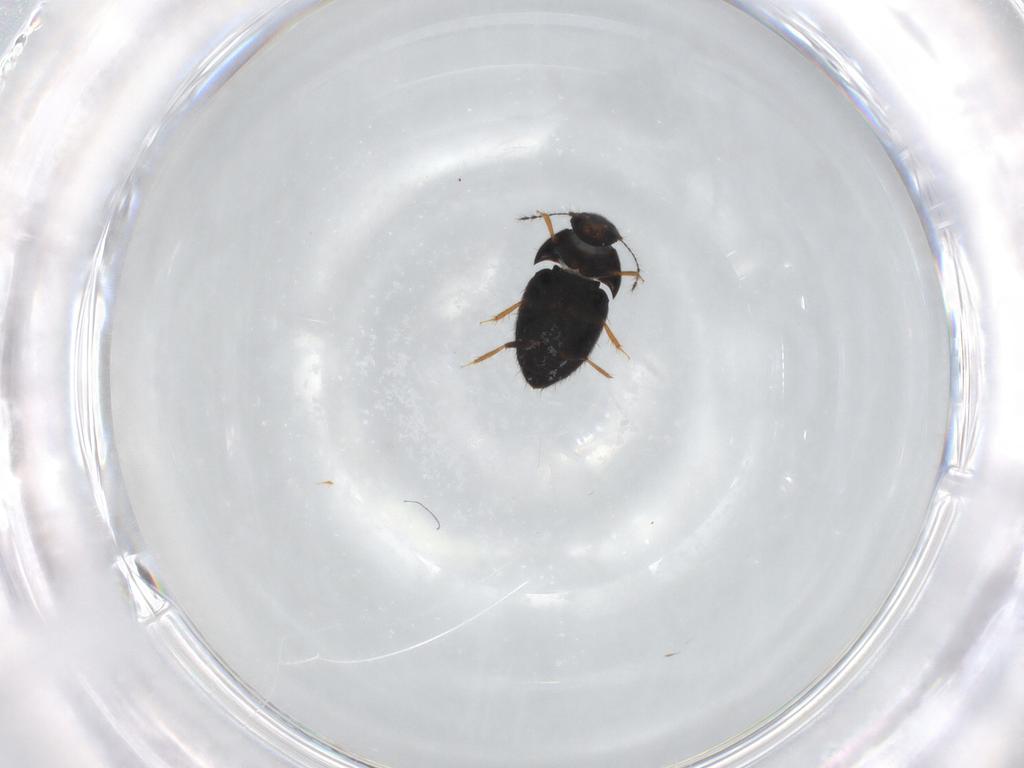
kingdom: Animalia
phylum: Arthropoda
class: Insecta
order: Coleoptera
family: Ptiliidae
